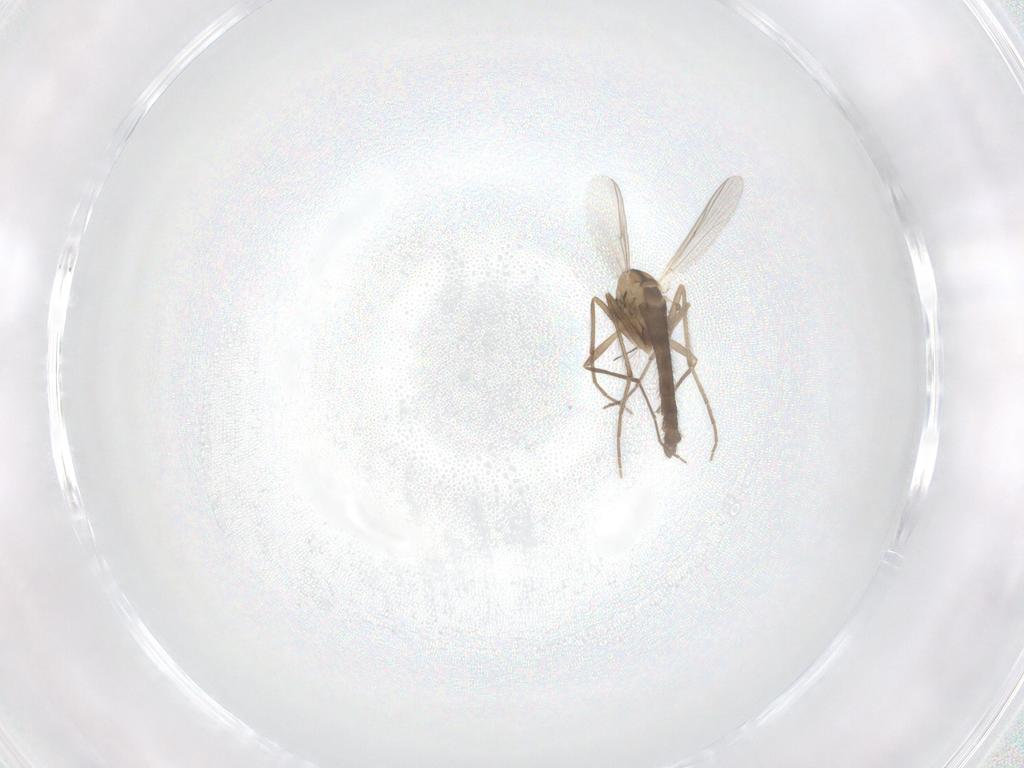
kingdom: Animalia
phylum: Arthropoda
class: Insecta
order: Diptera
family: Chironomidae
